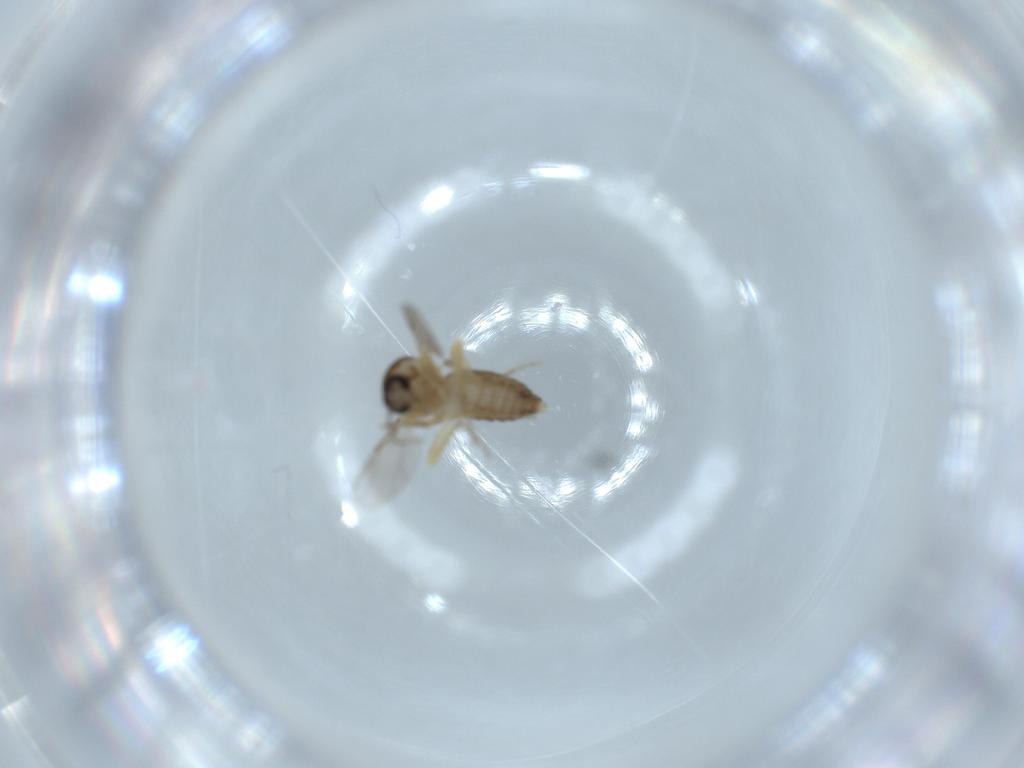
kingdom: Animalia
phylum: Arthropoda
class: Insecta
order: Diptera
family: Ceratopogonidae
